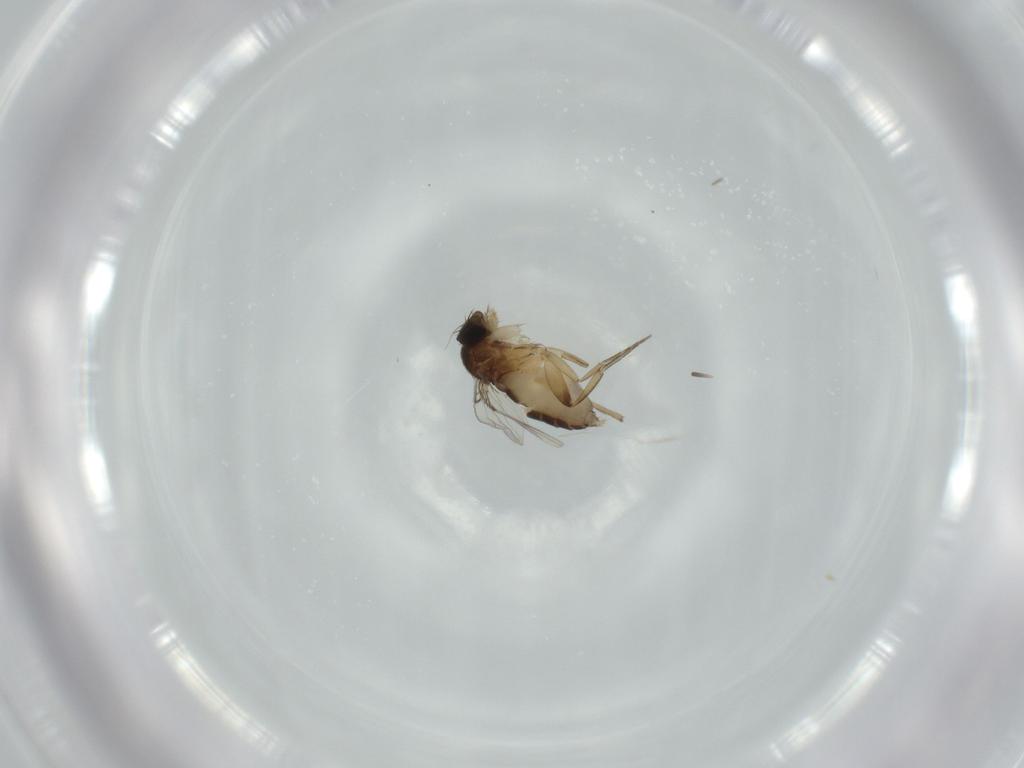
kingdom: Animalia
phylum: Arthropoda
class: Insecta
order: Diptera
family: Phoridae
